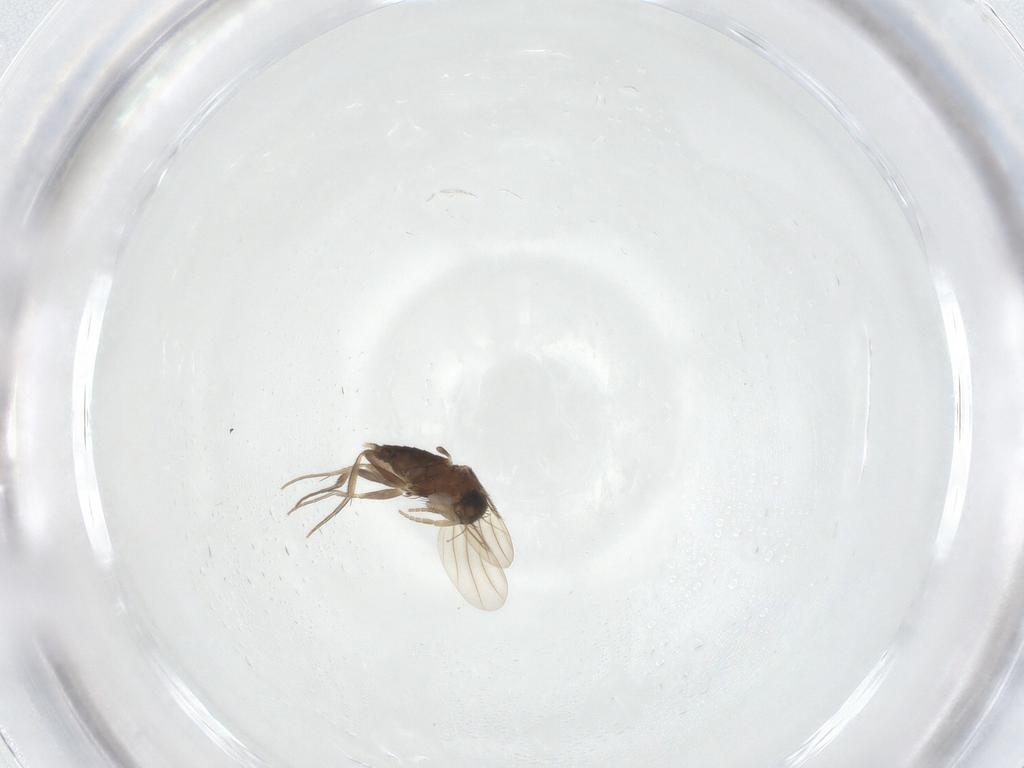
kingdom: Animalia
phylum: Arthropoda
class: Insecta
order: Diptera
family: Phoridae
